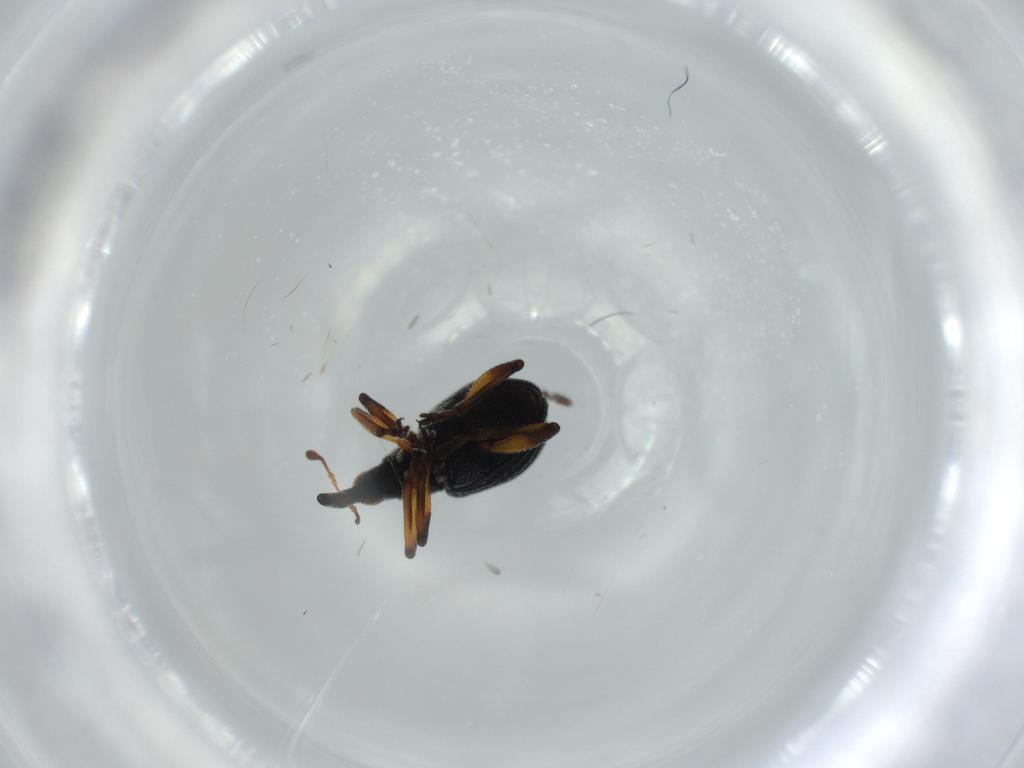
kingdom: Animalia
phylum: Arthropoda
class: Insecta
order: Coleoptera
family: Brentidae
